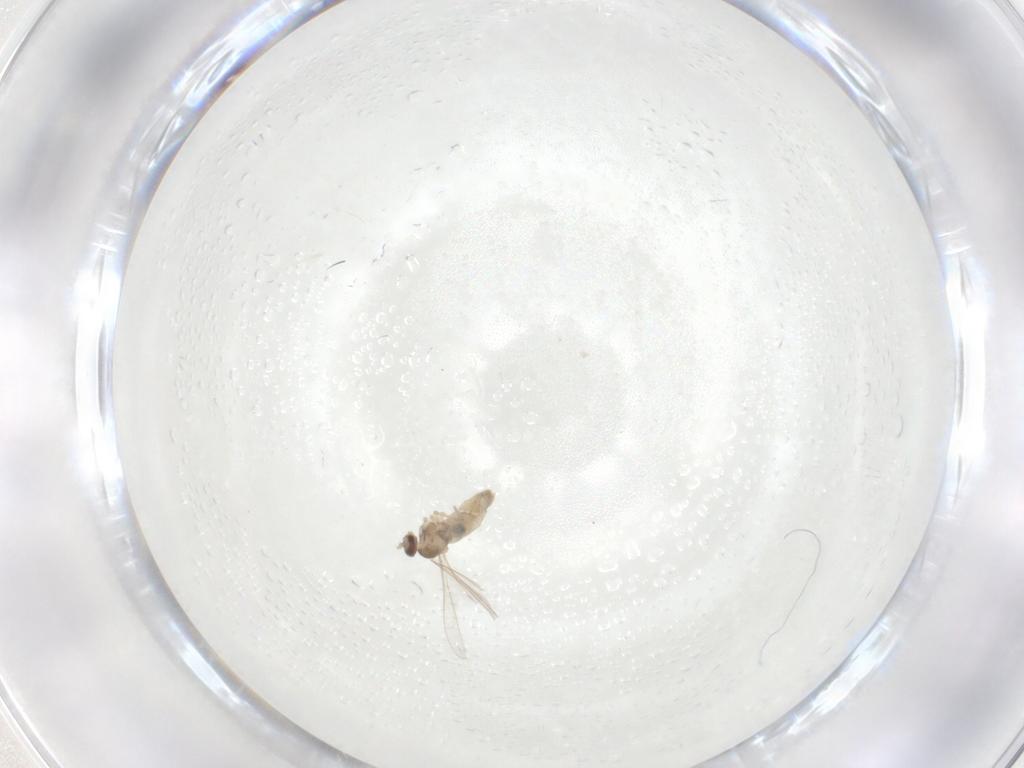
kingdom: Animalia
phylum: Arthropoda
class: Insecta
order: Diptera
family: Cecidomyiidae
